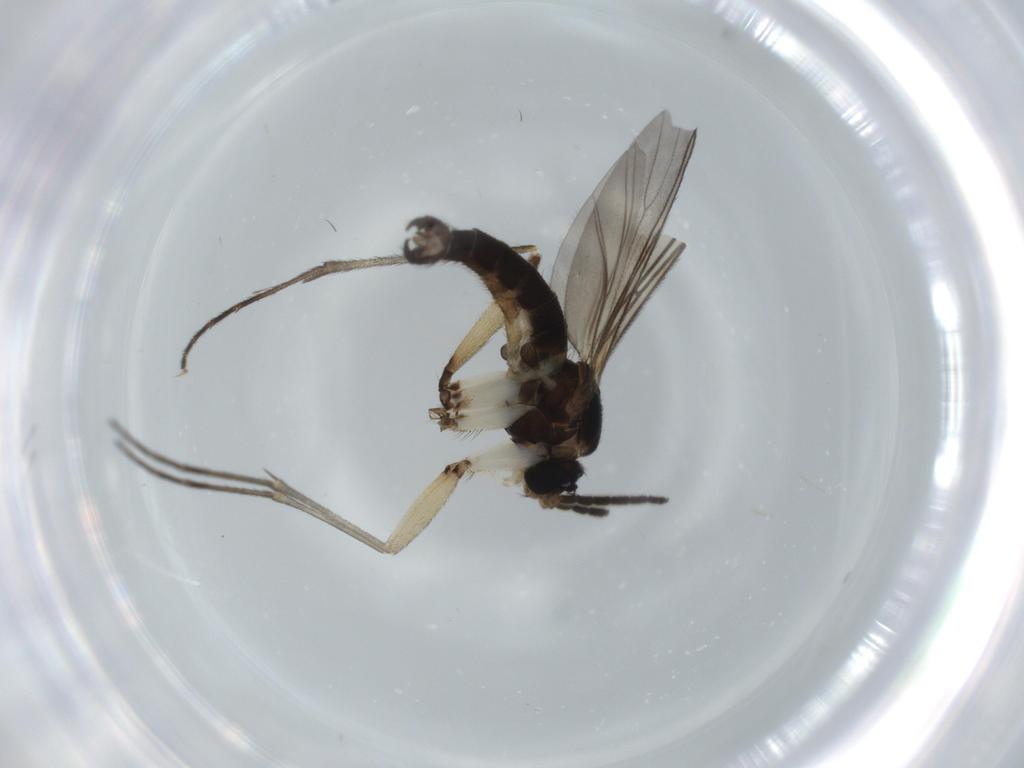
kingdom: Animalia
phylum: Arthropoda
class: Insecta
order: Diptera
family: Sciaridae
